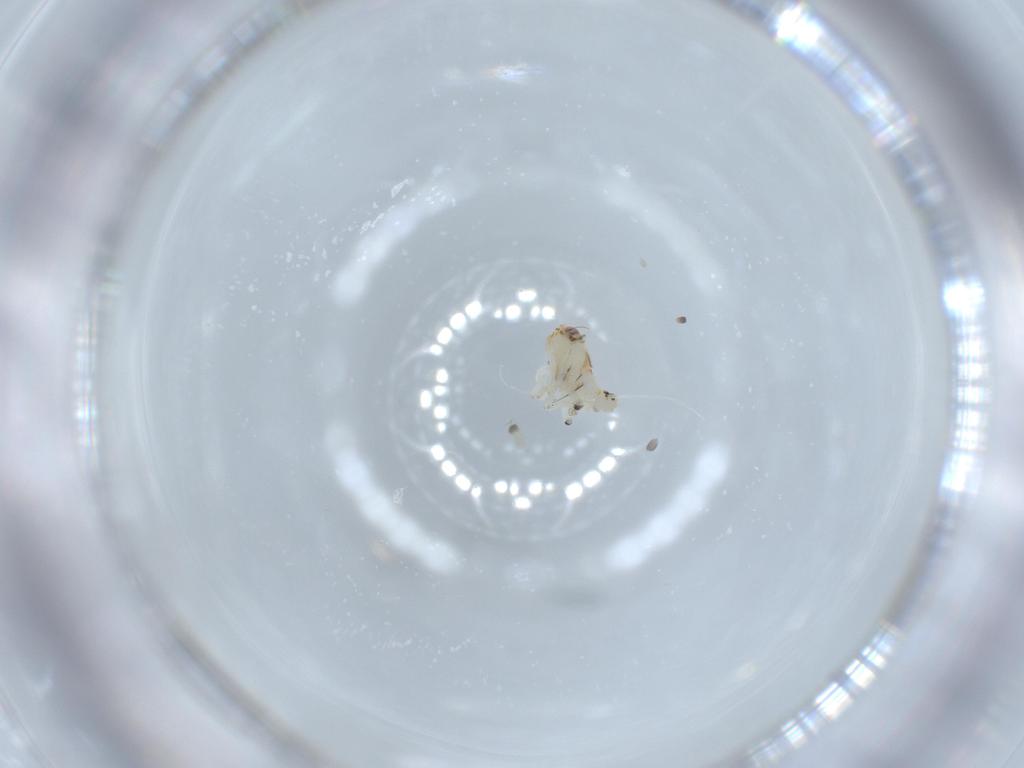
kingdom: Animalia
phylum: Arthropoda
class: Insecta
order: Hemiptera
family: Nogodinidae
